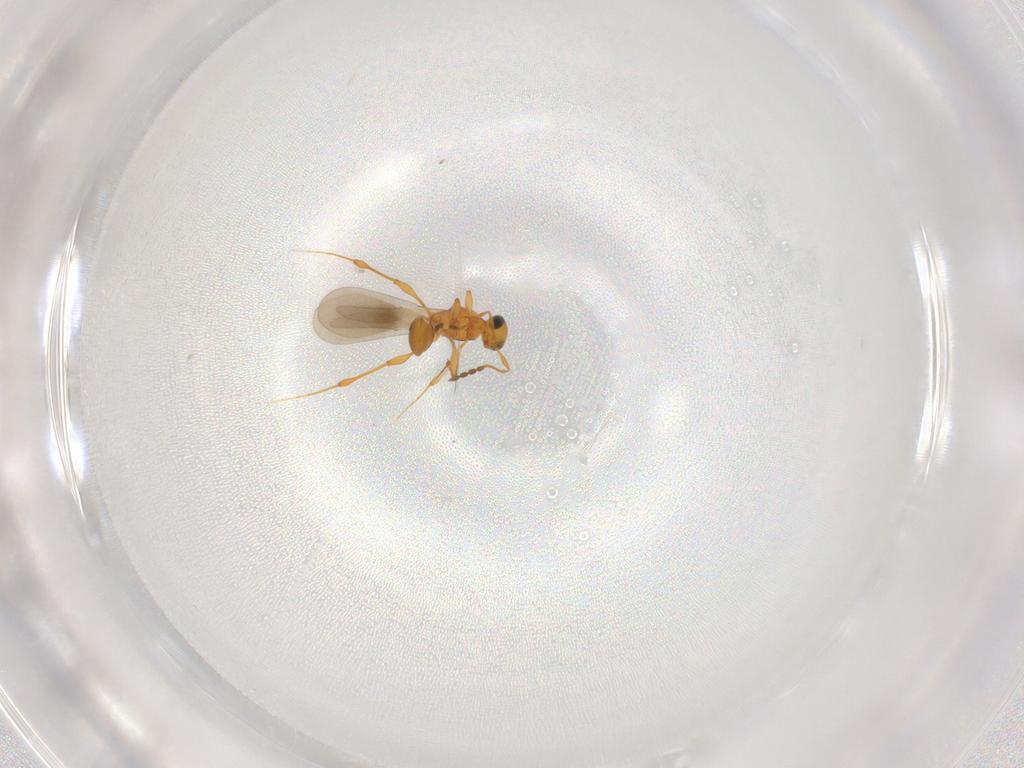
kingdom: Animalia
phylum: Arthropoda
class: Insecta
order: Hymenoptera
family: Platygastridae
